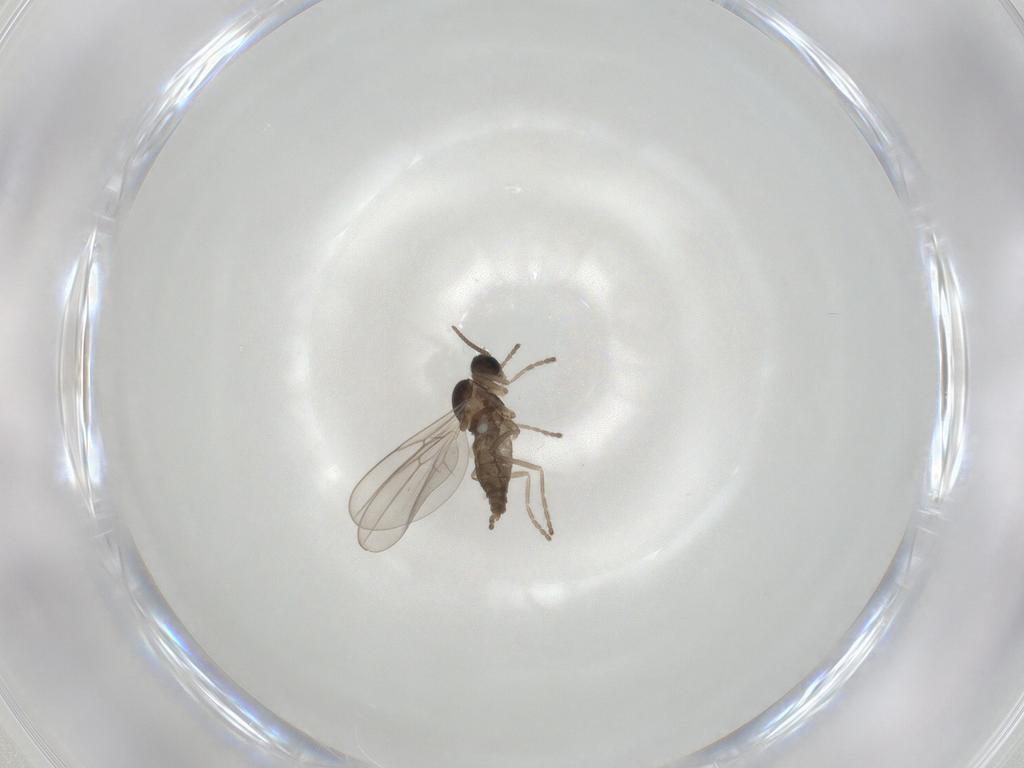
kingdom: Animalia
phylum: Arthropoda
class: Insecta
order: Diptera
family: Cecidomyiidae
